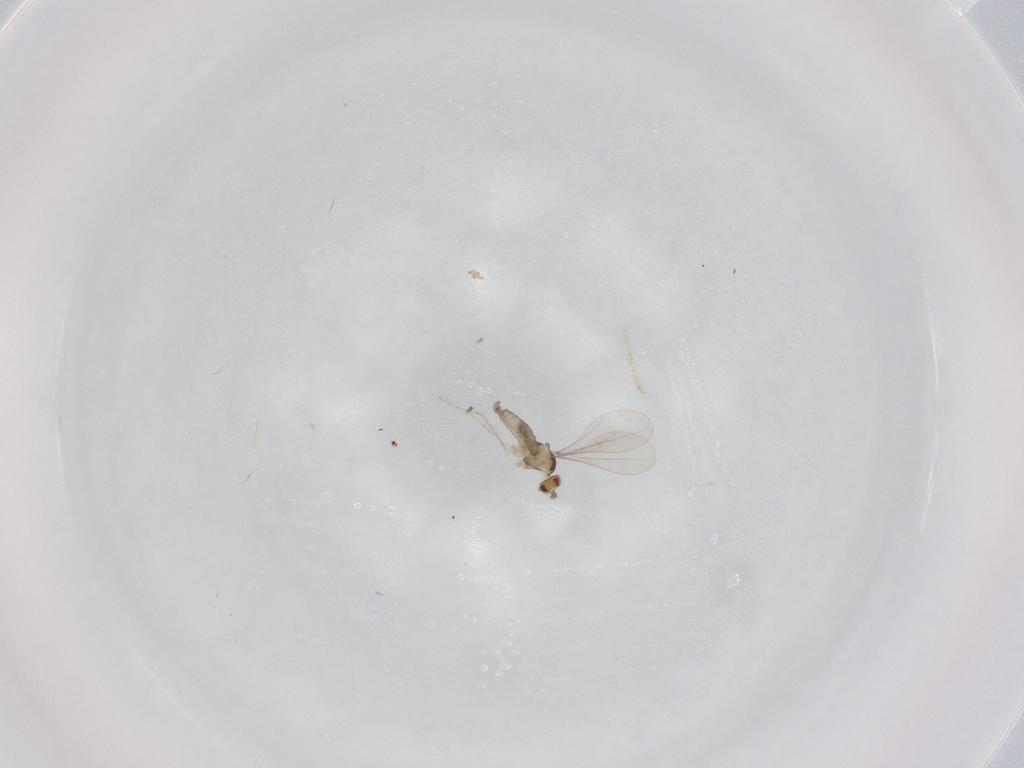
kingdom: Animalia
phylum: Arthropoda
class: Insecta
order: Diptera
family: Cecidomyiidae
